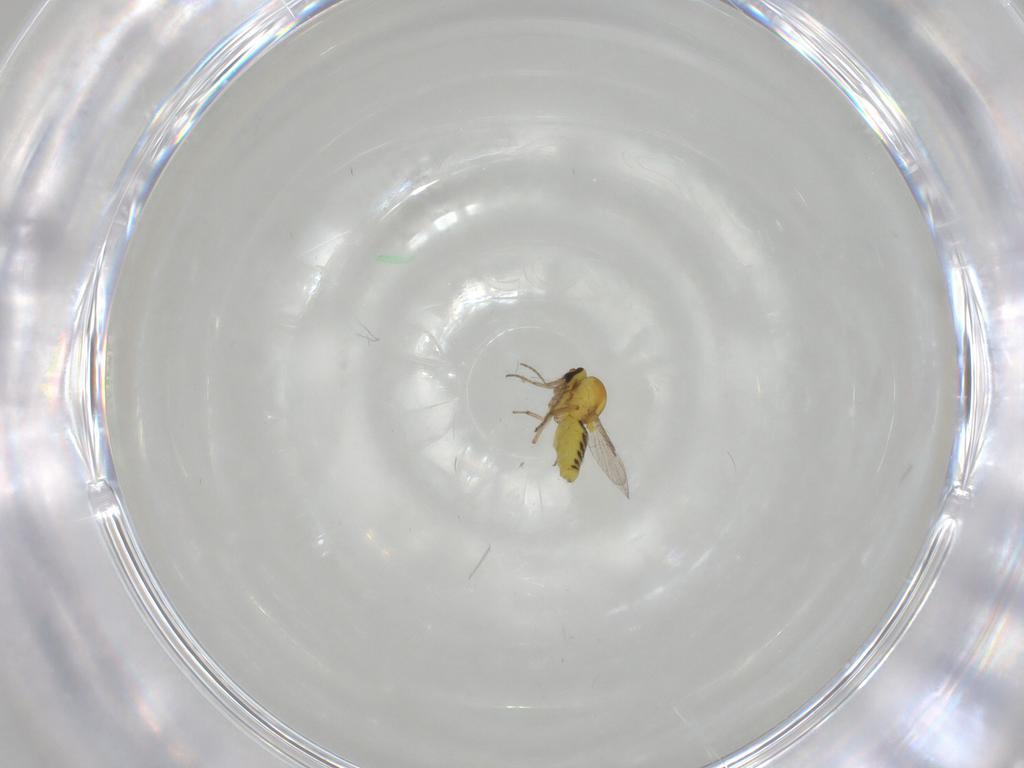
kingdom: Animalia
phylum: Arthropoda
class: Insecta
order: Diptera
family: Ceratopogonidae
